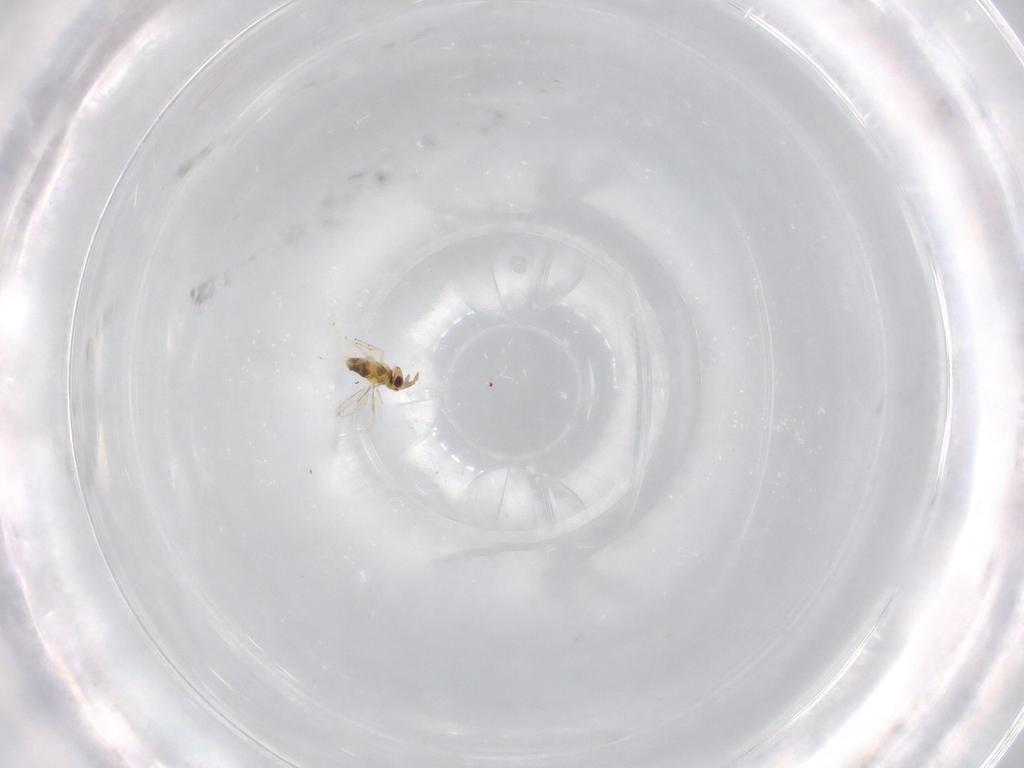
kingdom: Animalia
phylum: Arthropoda
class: Insecta
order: Hymenoptera
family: Aphelinidae
